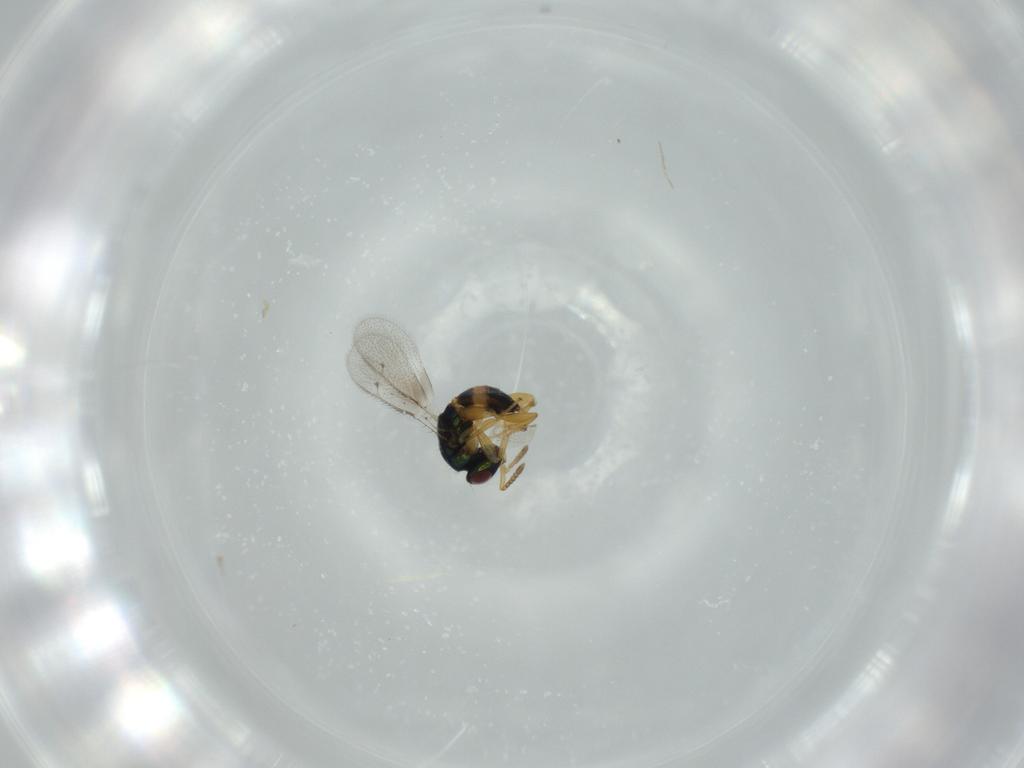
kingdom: Animalia
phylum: Arthropoda
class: Insecta
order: Hymenoptera
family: Torymidae
